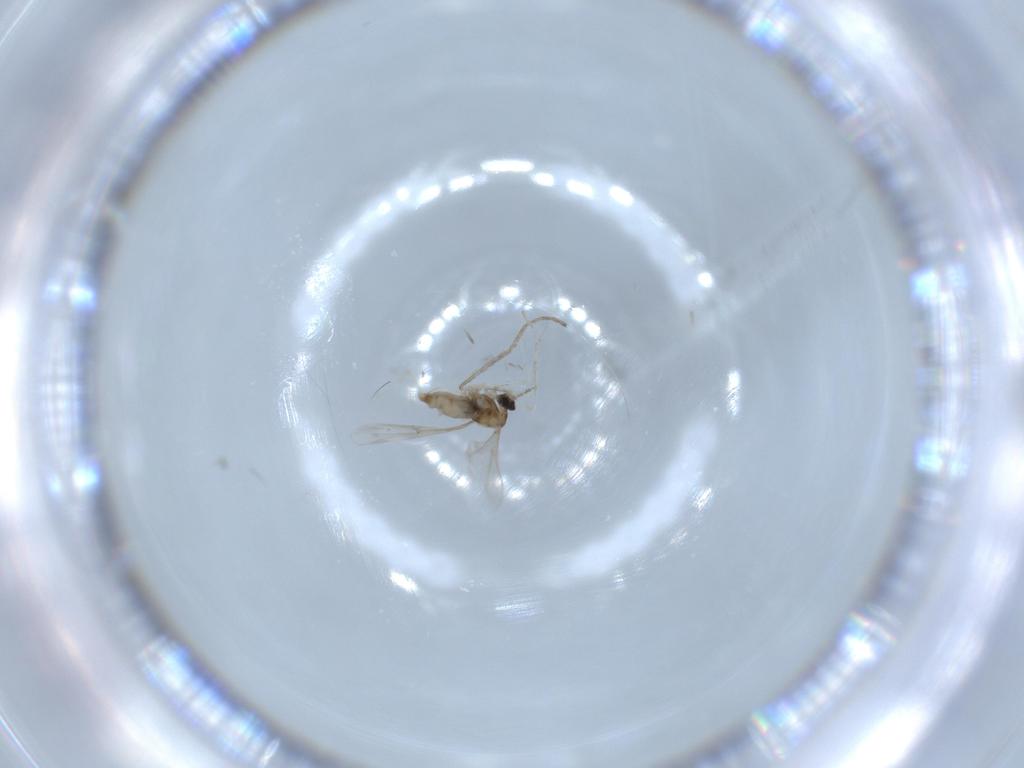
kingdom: Animalia
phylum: Arthropoda
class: Insecta
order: Diptera
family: Cecidomyiidae
